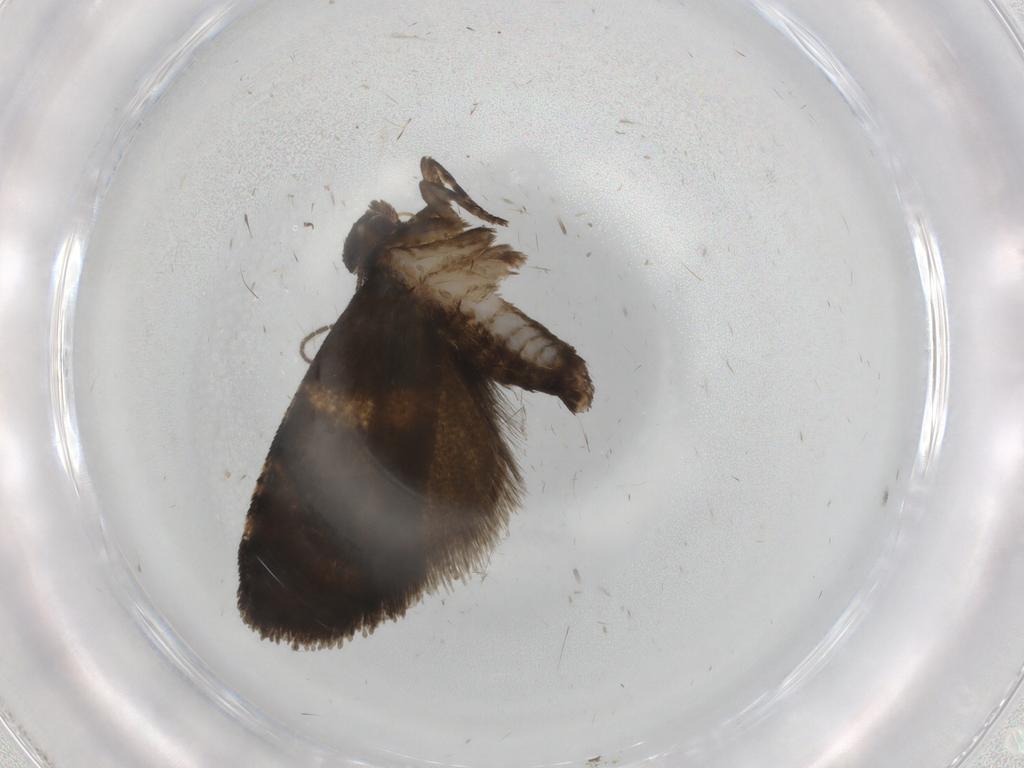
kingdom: Animalia
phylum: Arthropoda
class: Insecta
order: Lepidoptera
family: Tortricidae
